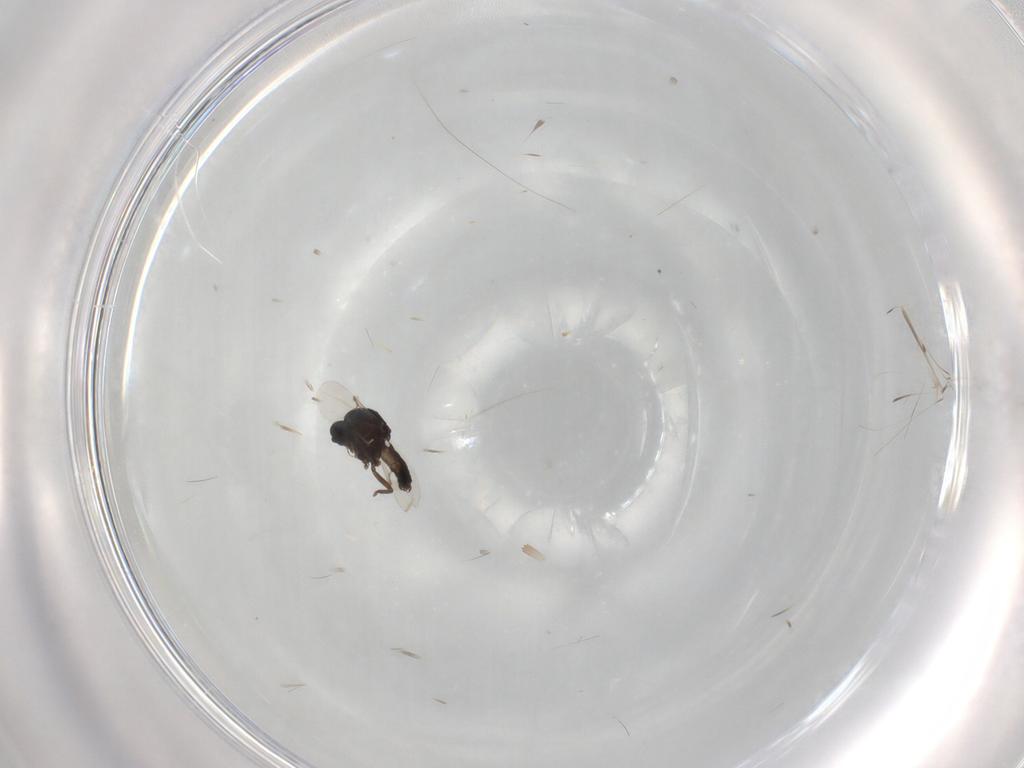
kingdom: Animalia
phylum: Arthropoda
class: Insecta
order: Diptera
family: Ceratopogonidae
